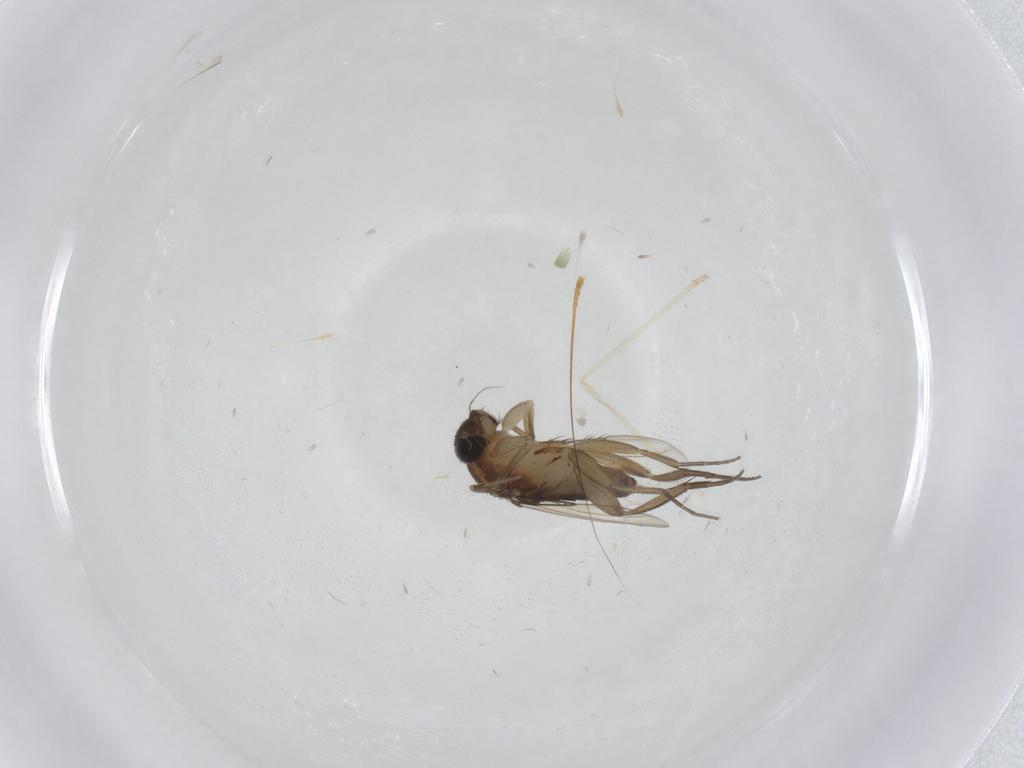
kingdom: Animalia
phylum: Arthropoda
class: Insecta
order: Diptera
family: Phoridae
